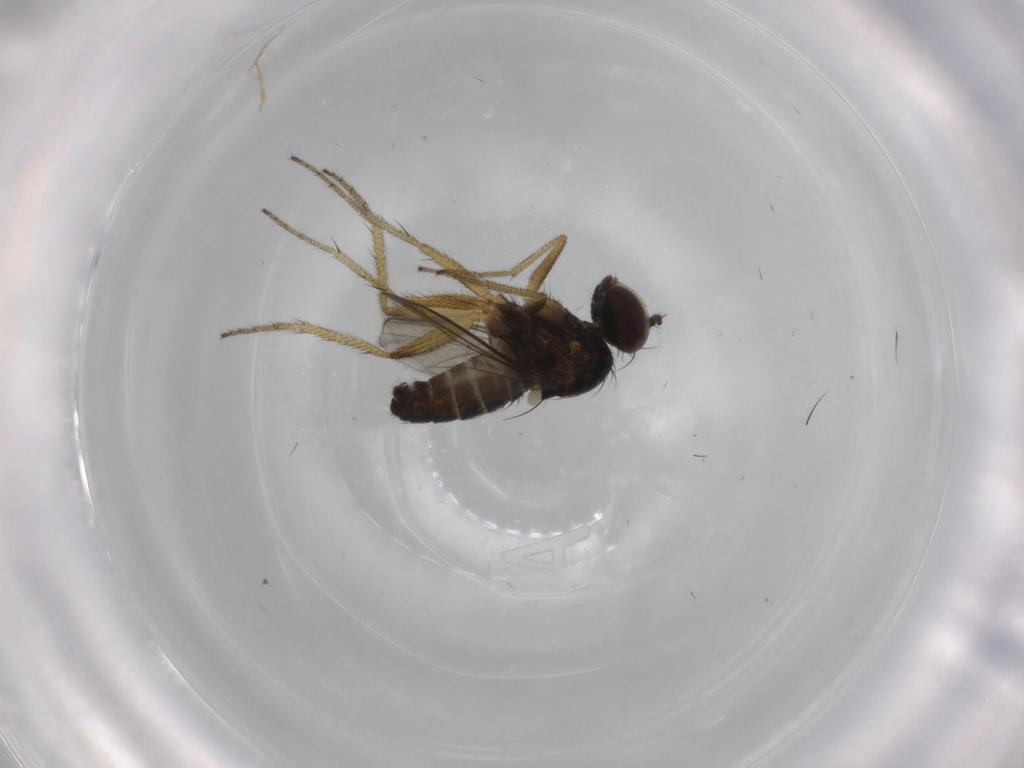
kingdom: Animalia
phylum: Arthropoda
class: Insecta
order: Diptera
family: Dolichopodidae
